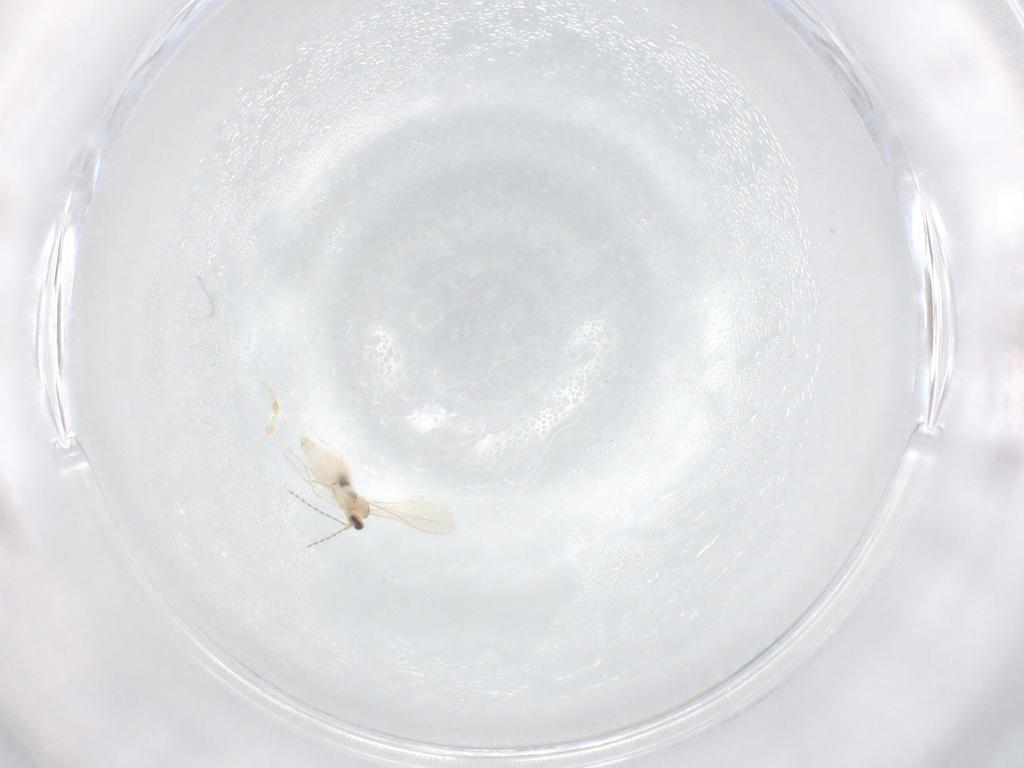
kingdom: Animalia
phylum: Arthropoda
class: Insecta
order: Diptera
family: Cecidomyiidae
